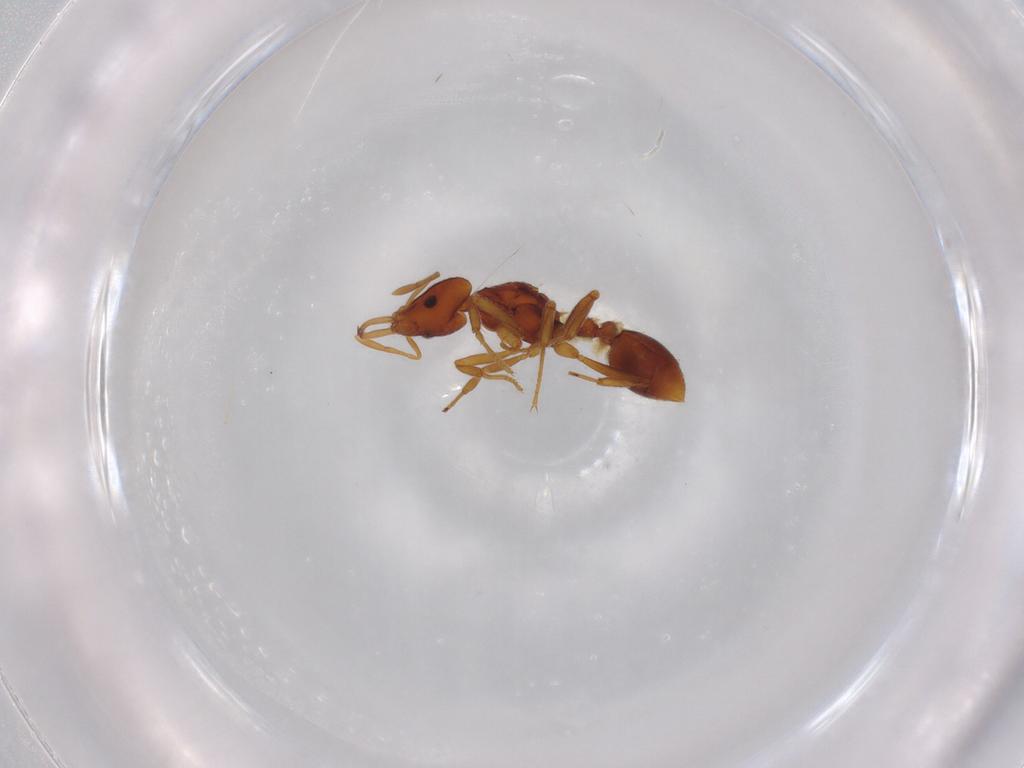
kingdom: Animalia
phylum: Arthropoda
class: Insecta
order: Hymenoptera
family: Formicidae
